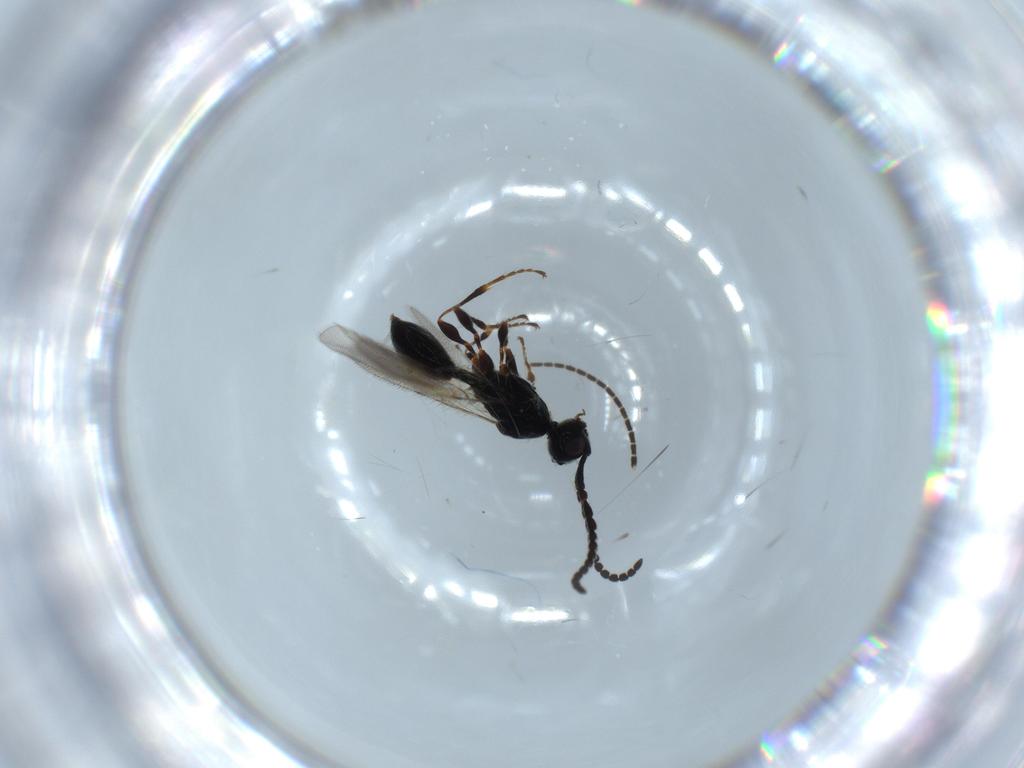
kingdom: Animalia
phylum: Arthropoda
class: Insecta
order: Hymenoptera
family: Diapriidae
